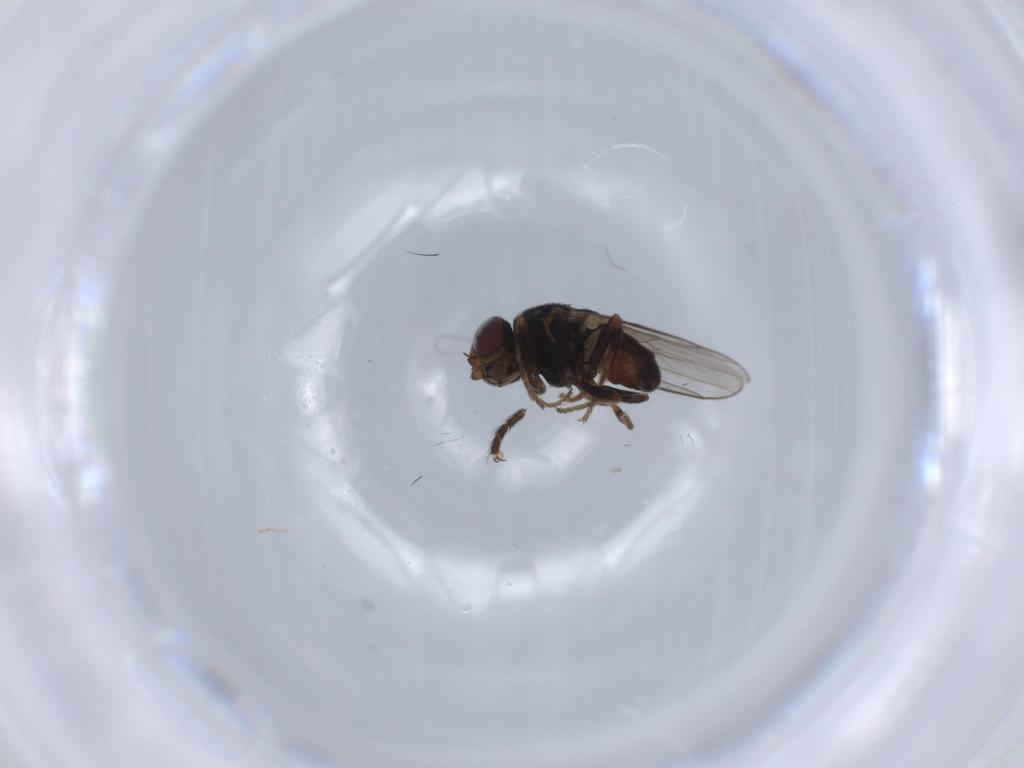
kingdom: Animalia
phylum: Arthropoda
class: Insecta
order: Diptera
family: Chloropidae
